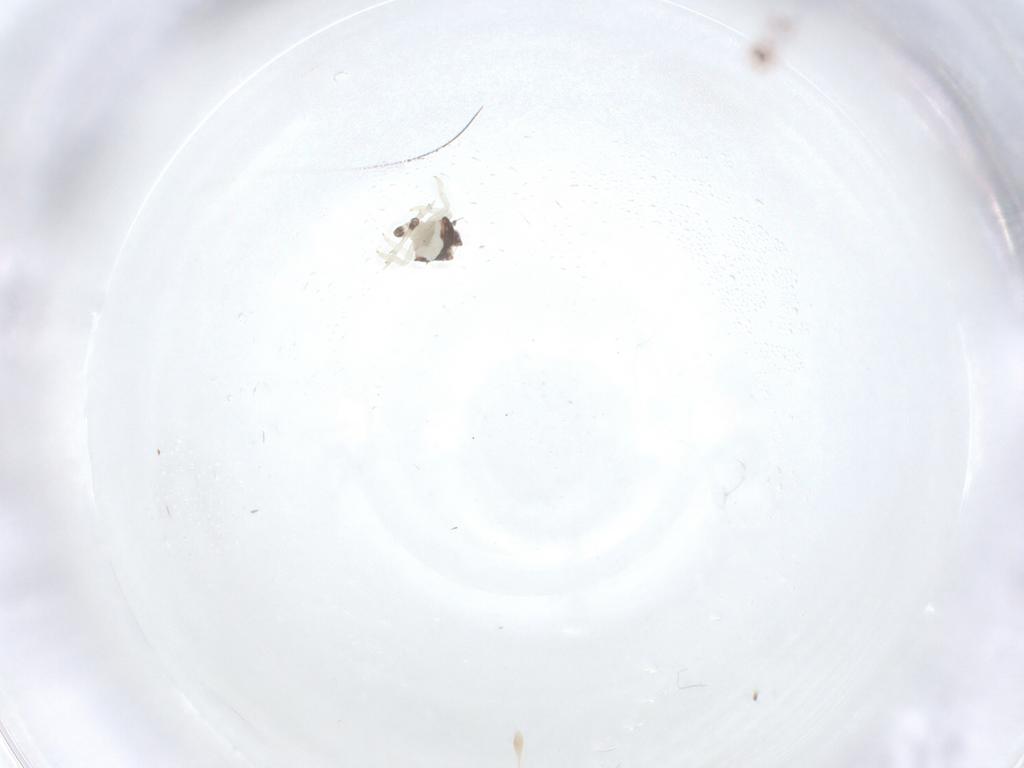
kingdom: Animalia
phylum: Arthropoda
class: Insecta
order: Hemiptera
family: Nogodinidae
